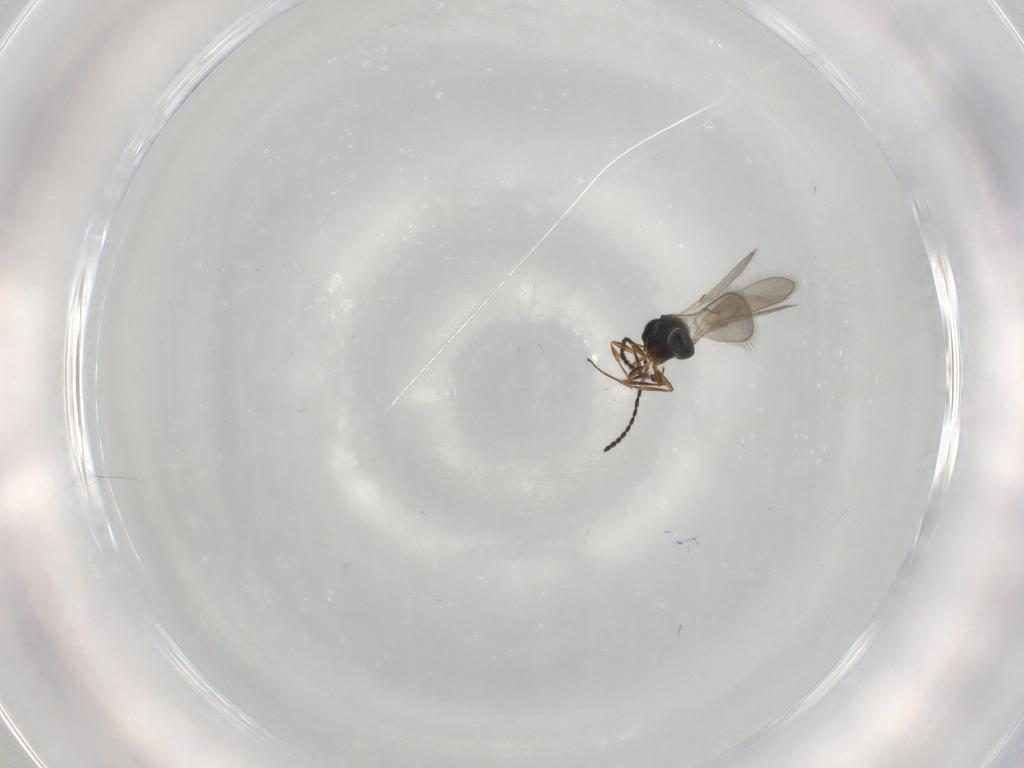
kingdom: Animalia
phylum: Arthropoda
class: Insecta
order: Hymenoptera
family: Scelionidae
